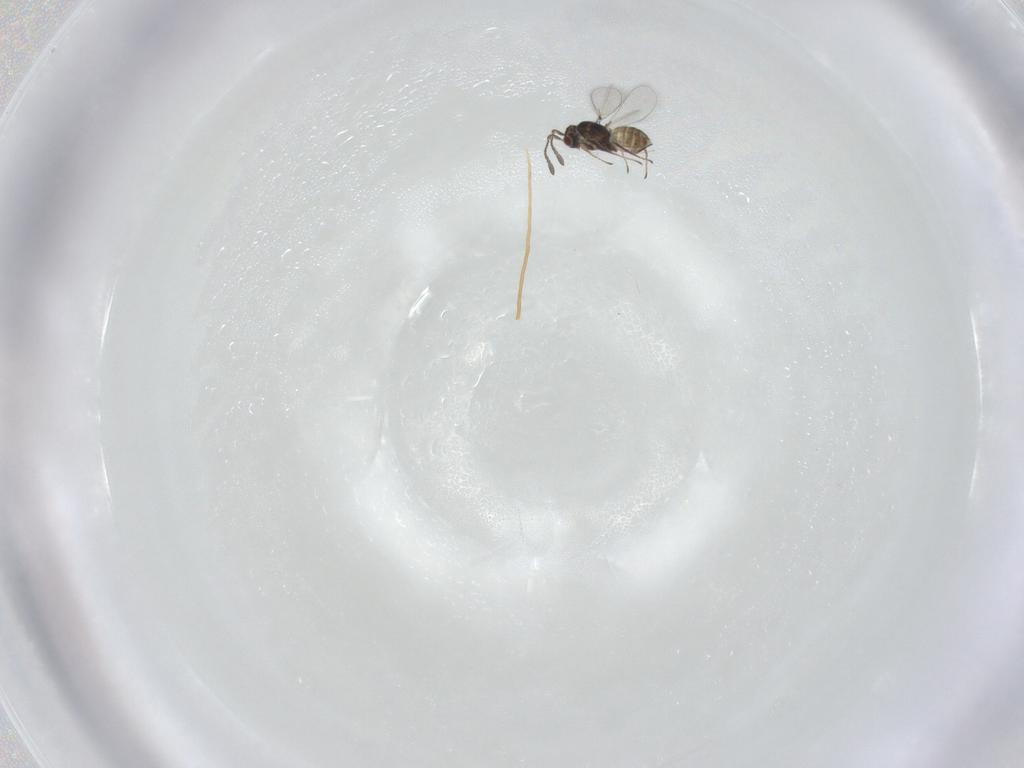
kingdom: Animalia
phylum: Arthropoda
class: Insecta
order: Hymenoptera
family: Mymaridae
